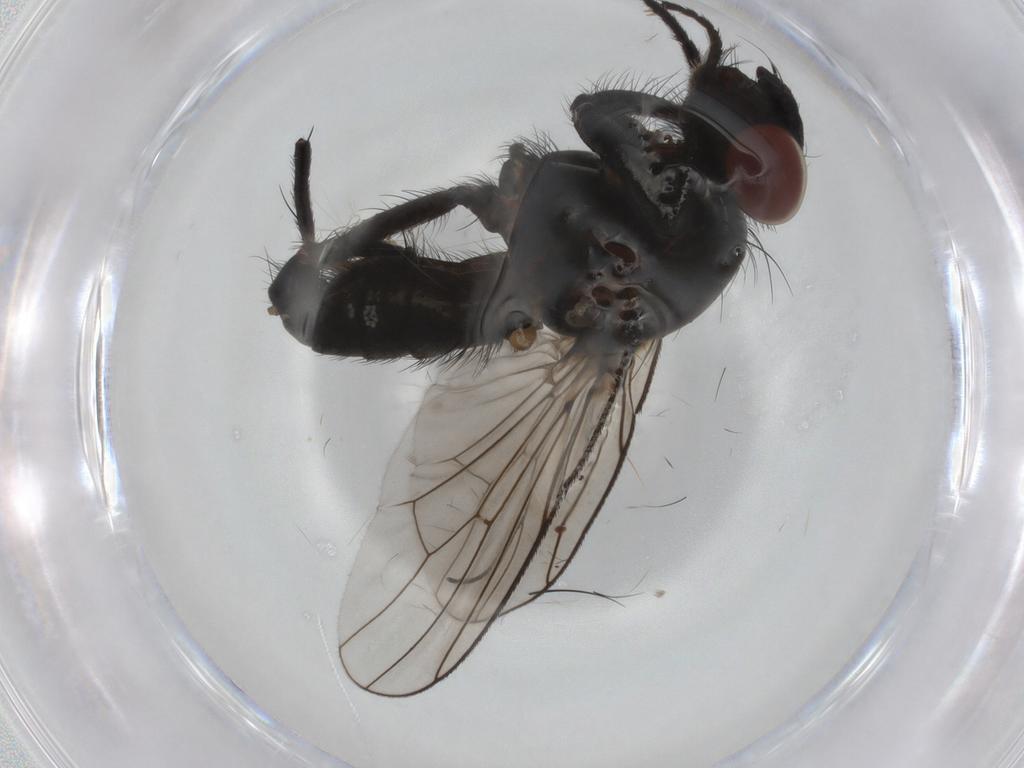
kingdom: Animalia
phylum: Arthropoda
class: Insecta
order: Diptera
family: Anthomyiidae
